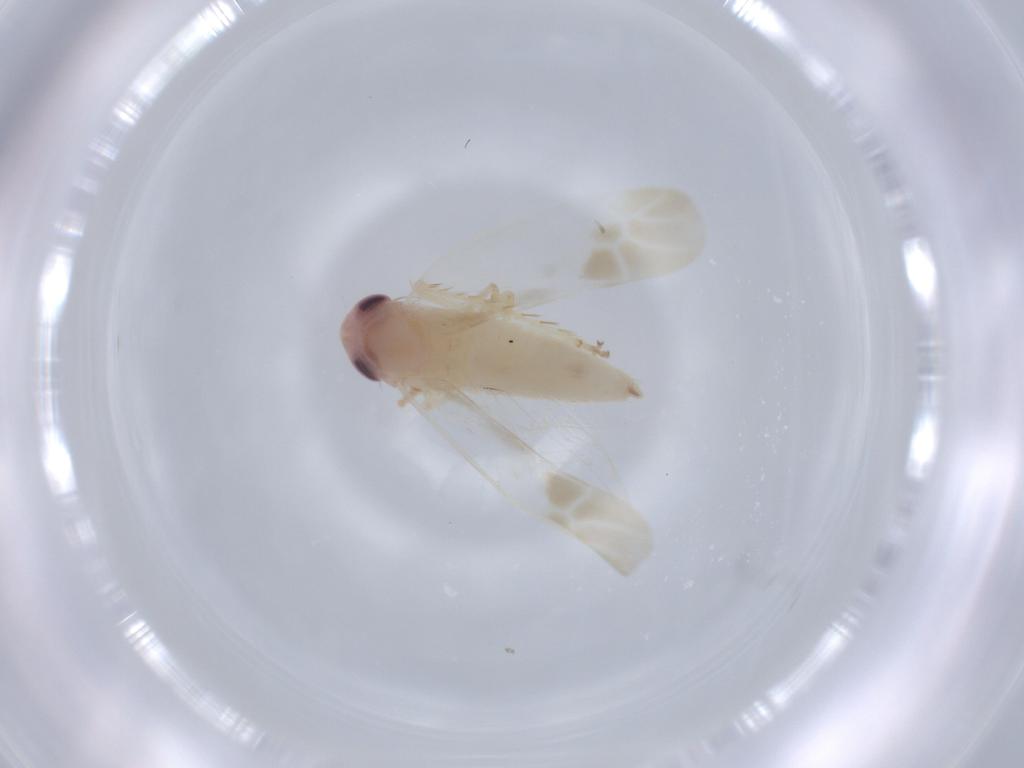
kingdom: Animalia
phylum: Arthropoda
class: Insecta
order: Hemiptera
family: Cicadellidae
